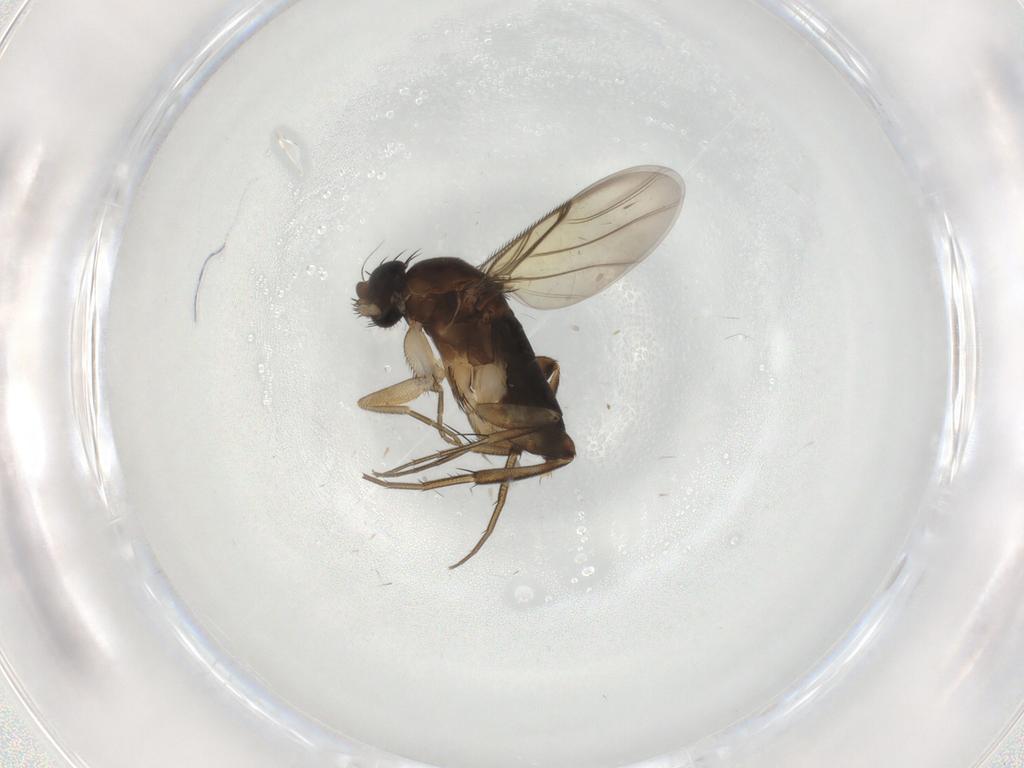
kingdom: Animalia
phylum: Arthropoda
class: Insecta
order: Diptera
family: Phoridae
